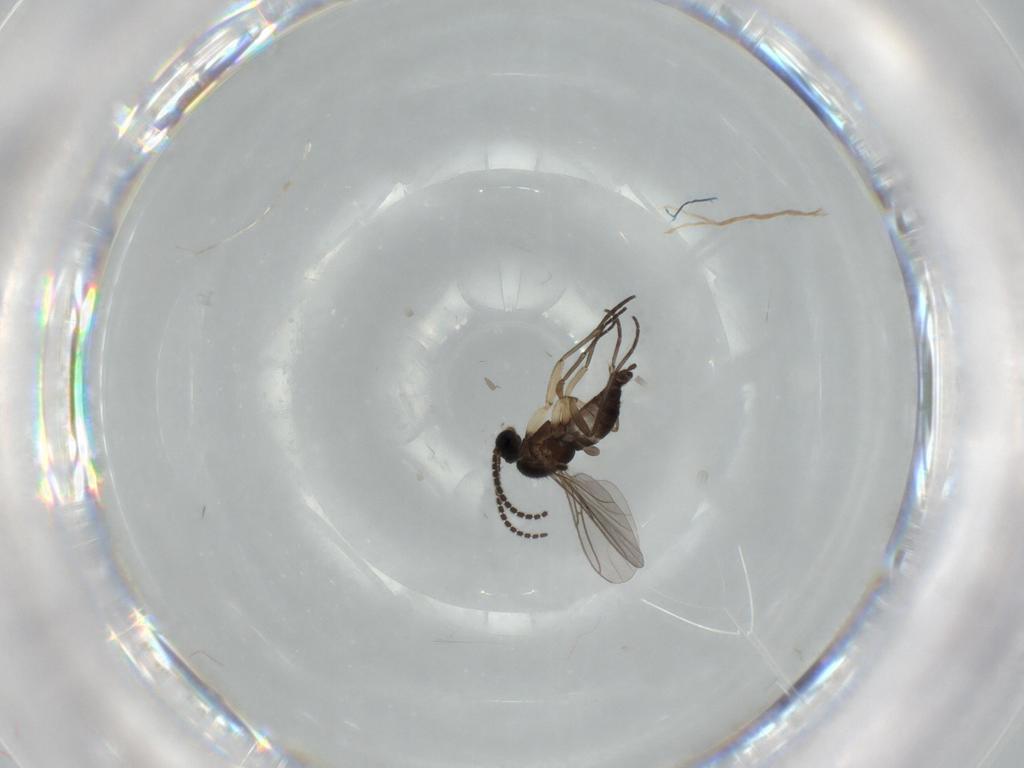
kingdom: Animalia
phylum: Arthropoda
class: Insecta
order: Diptera
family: Sciaridae
